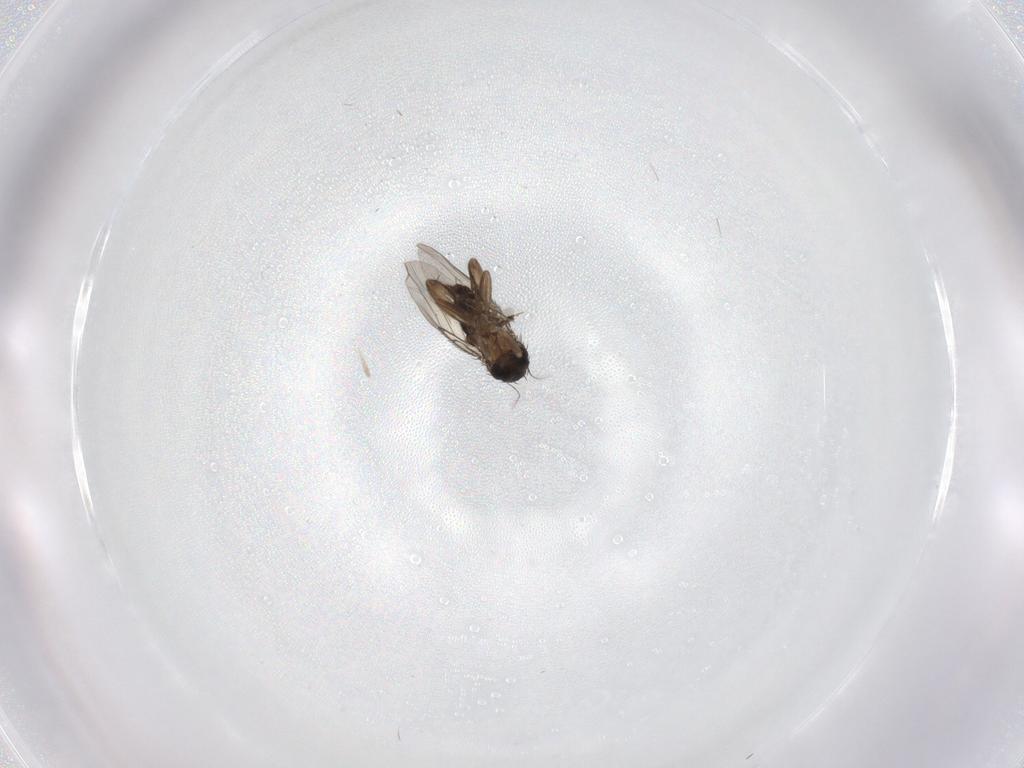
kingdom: Animalia
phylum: Arthropoda
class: Insecta
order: Diptera
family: Phoridae
